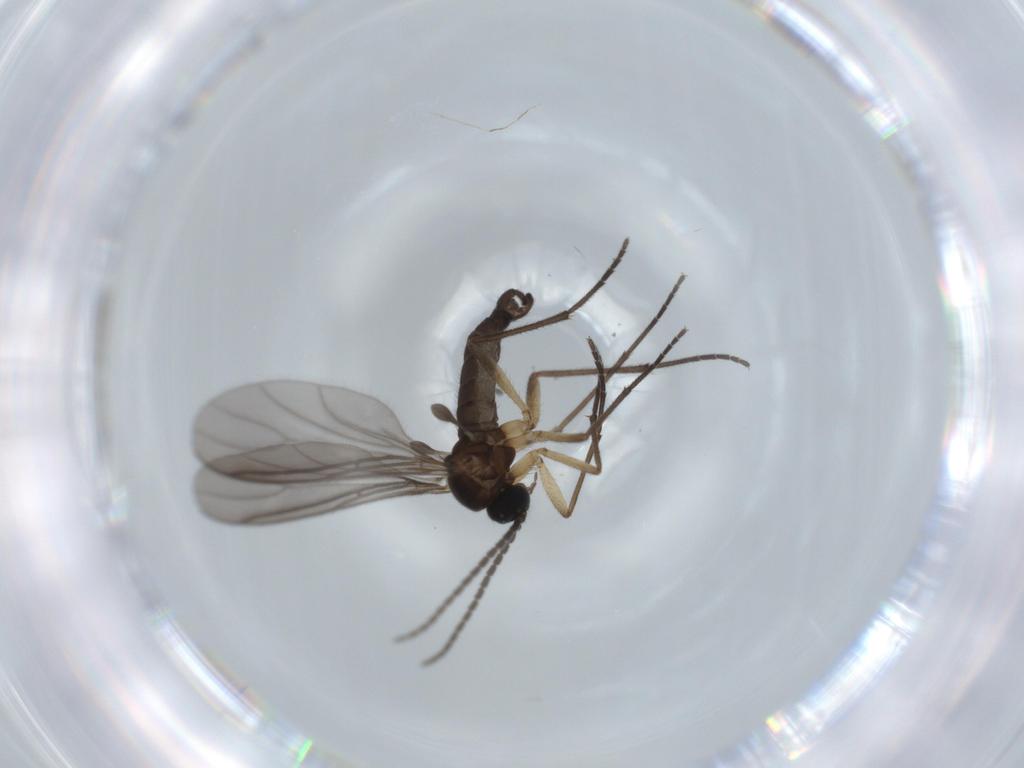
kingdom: Animalia
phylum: Arthropoda
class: Insecta
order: Diptera
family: Sciaridae
